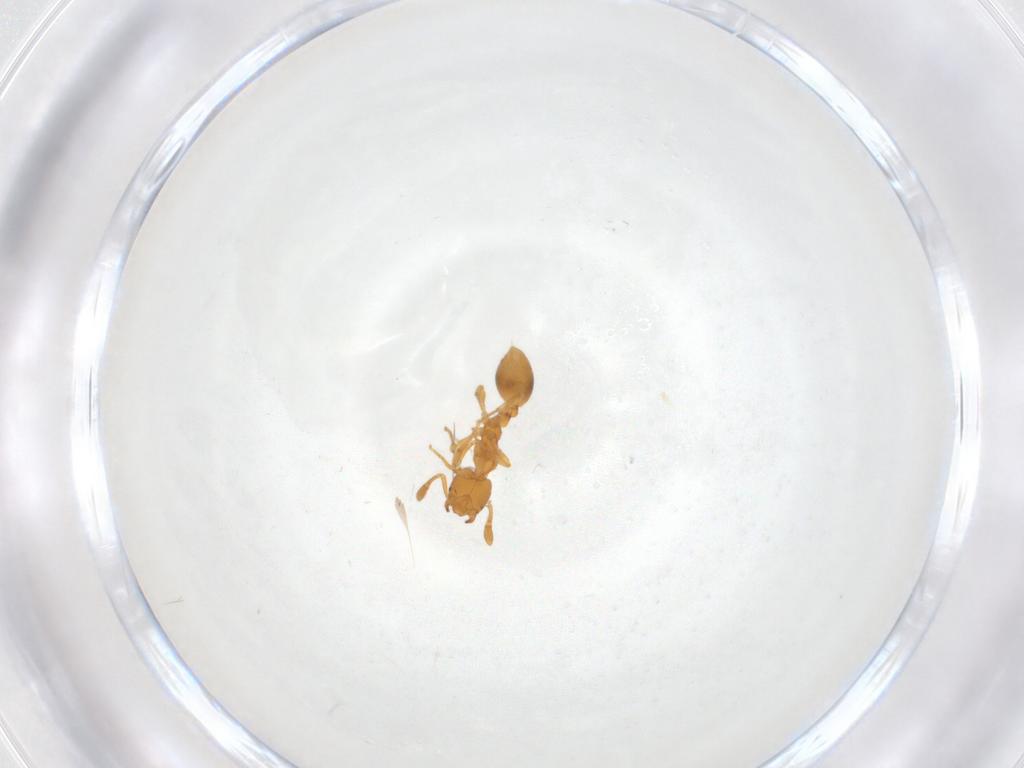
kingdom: Animalia
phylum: Arthropoda
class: Insecta
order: Hymenoptera
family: Formicidae
